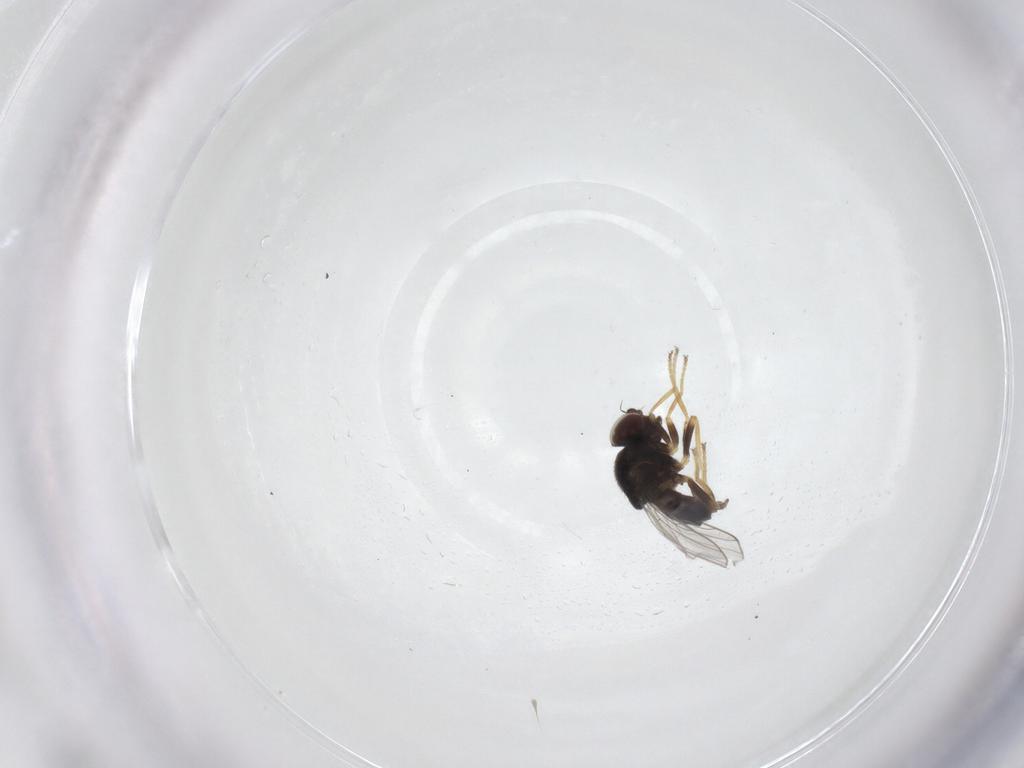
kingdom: Animalia
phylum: Arthropoda
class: Insecta
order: Diptera
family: Chloropidae
